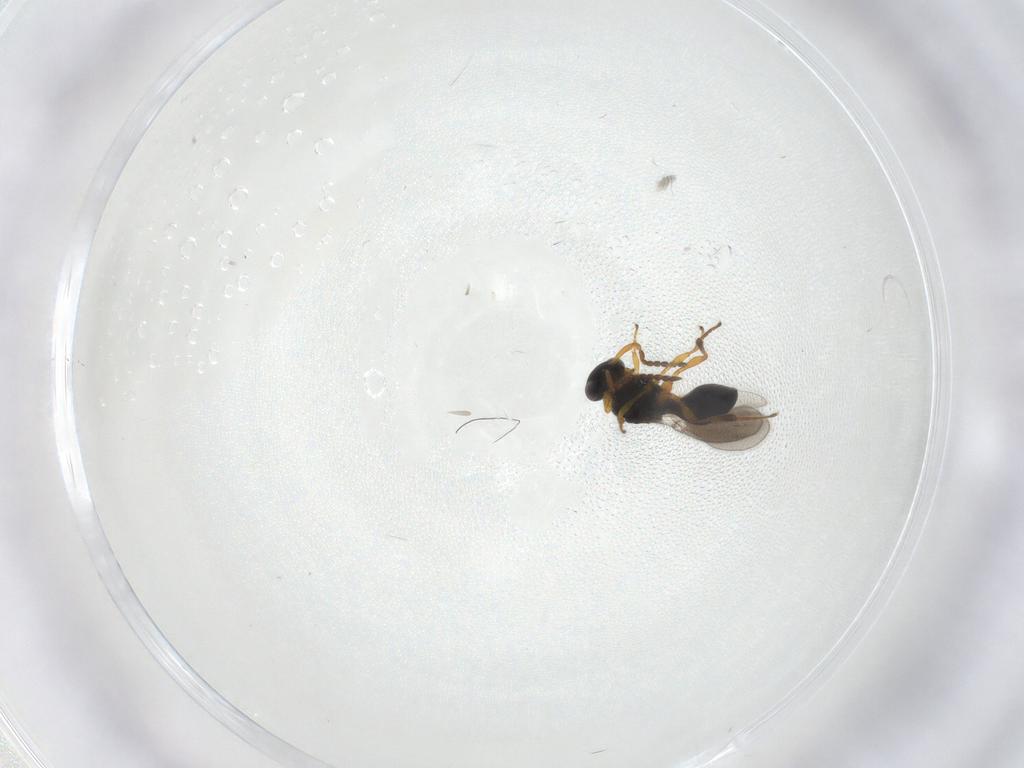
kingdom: Animalia
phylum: Arthropoda
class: Insecta
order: Hymenoptera
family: Platygastridae
